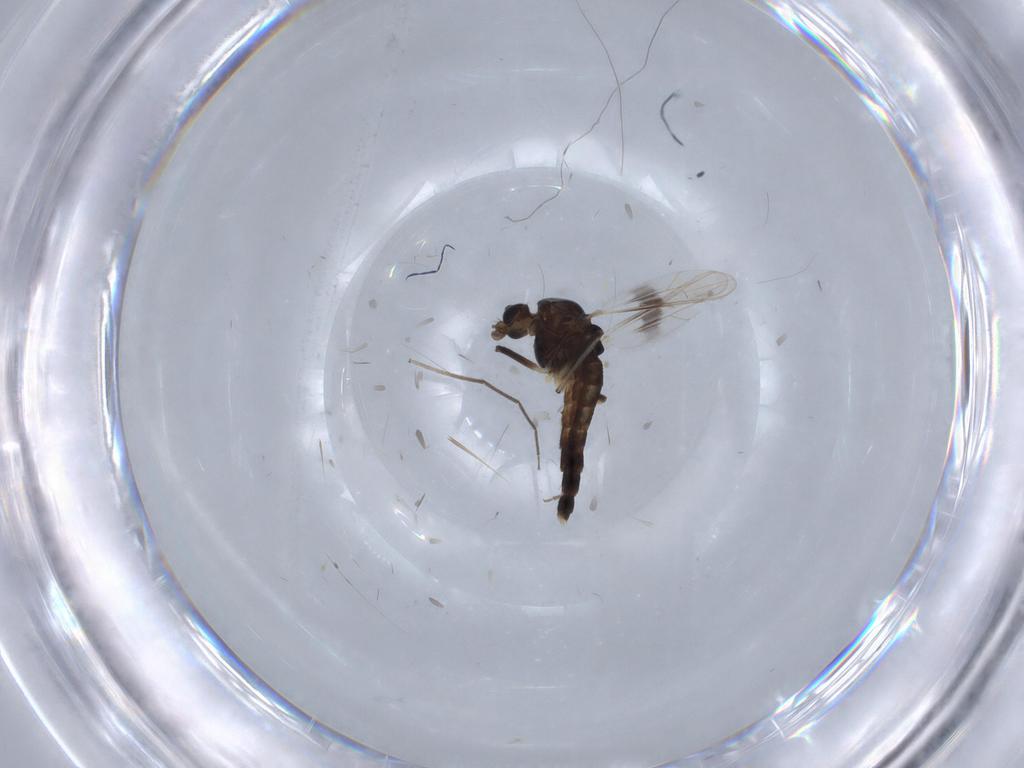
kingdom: Animalia
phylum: Arthropoda
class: Insecta
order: Diptera
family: Chironomidae
